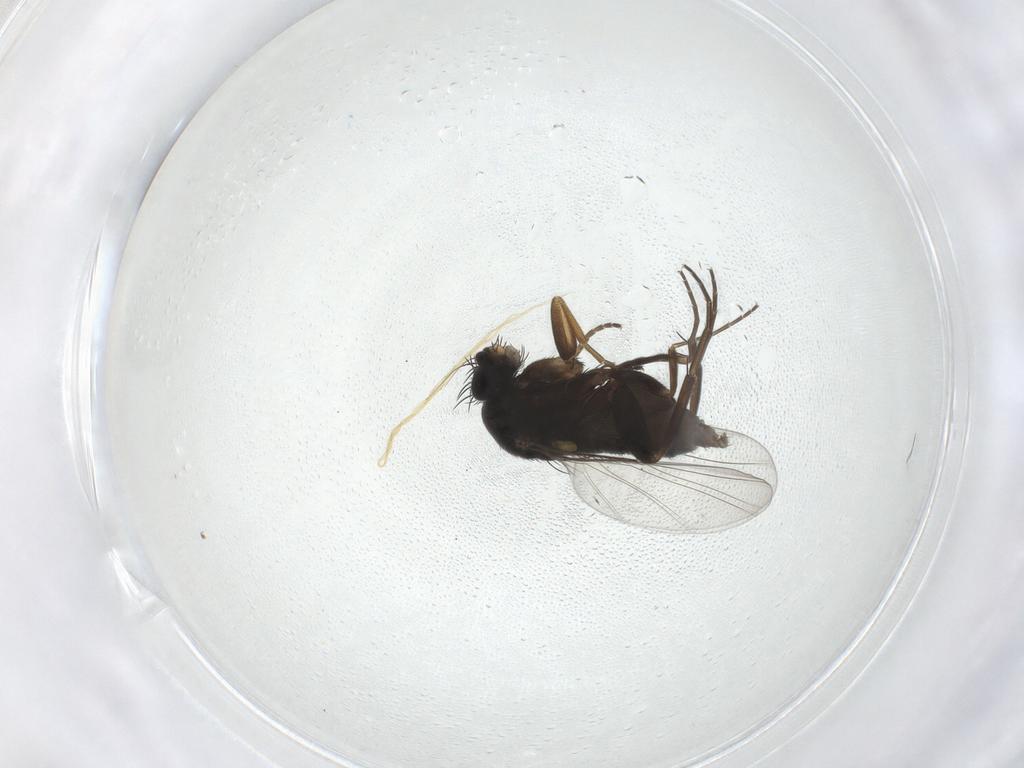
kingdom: Animalia
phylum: Arthropoda
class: Insecta
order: Diptera
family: Phoridae
